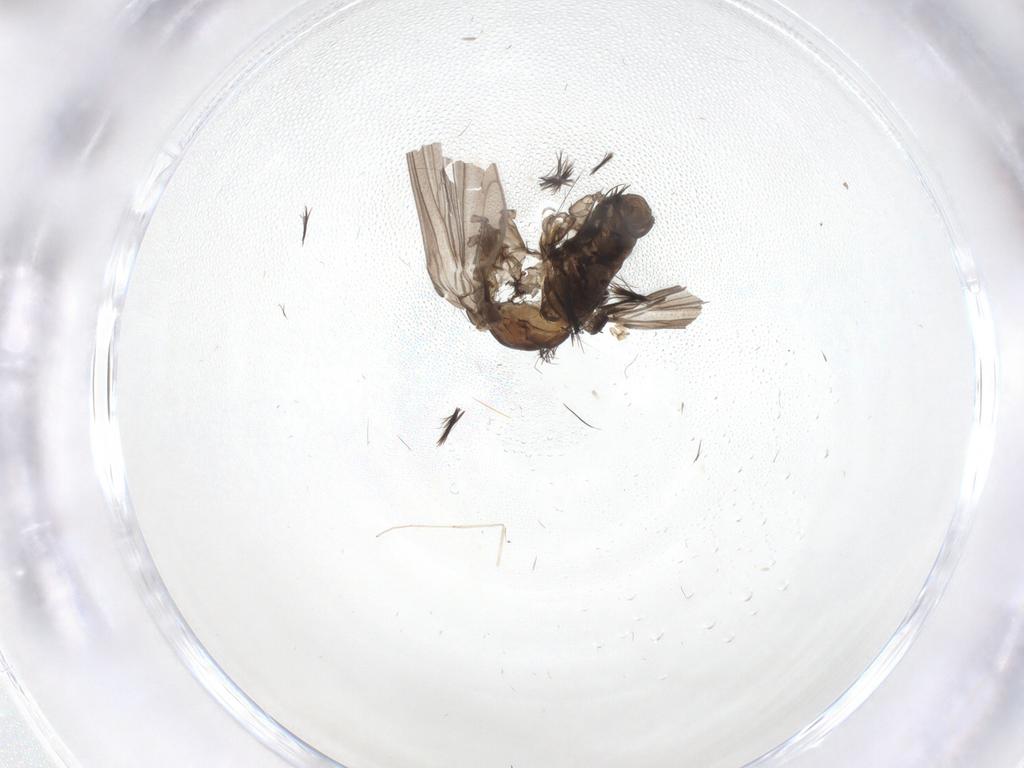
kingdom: Animalia
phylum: Arthropoda
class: Insecta
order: Diptera
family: Psychodidae
